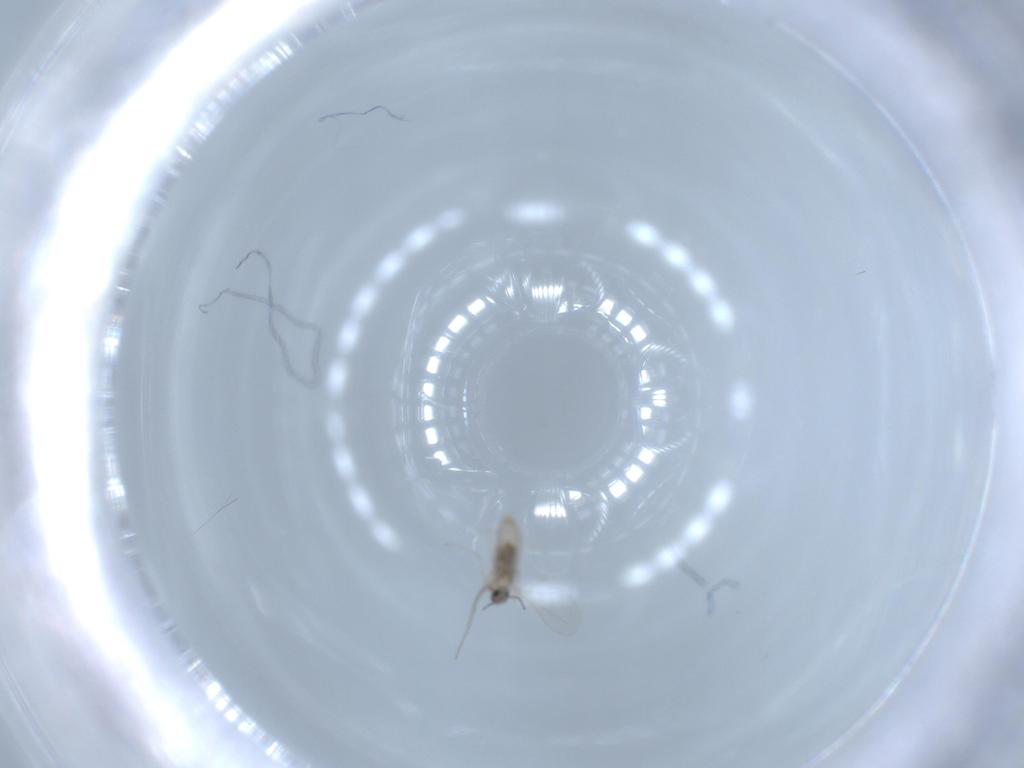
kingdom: Animalia
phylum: Arthropoda
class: Insecta
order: Diptera
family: Cecidomyiidae
